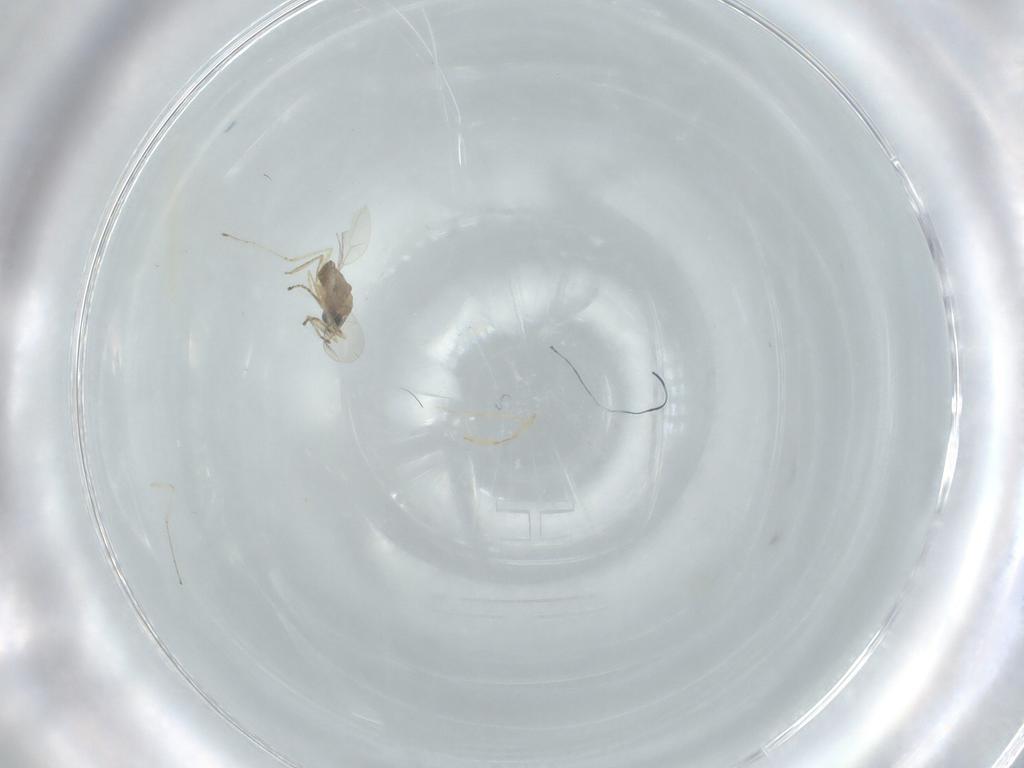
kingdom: Animalia
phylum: Arthropoda
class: Insecta
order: Diptera
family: Cecidomyiidae
